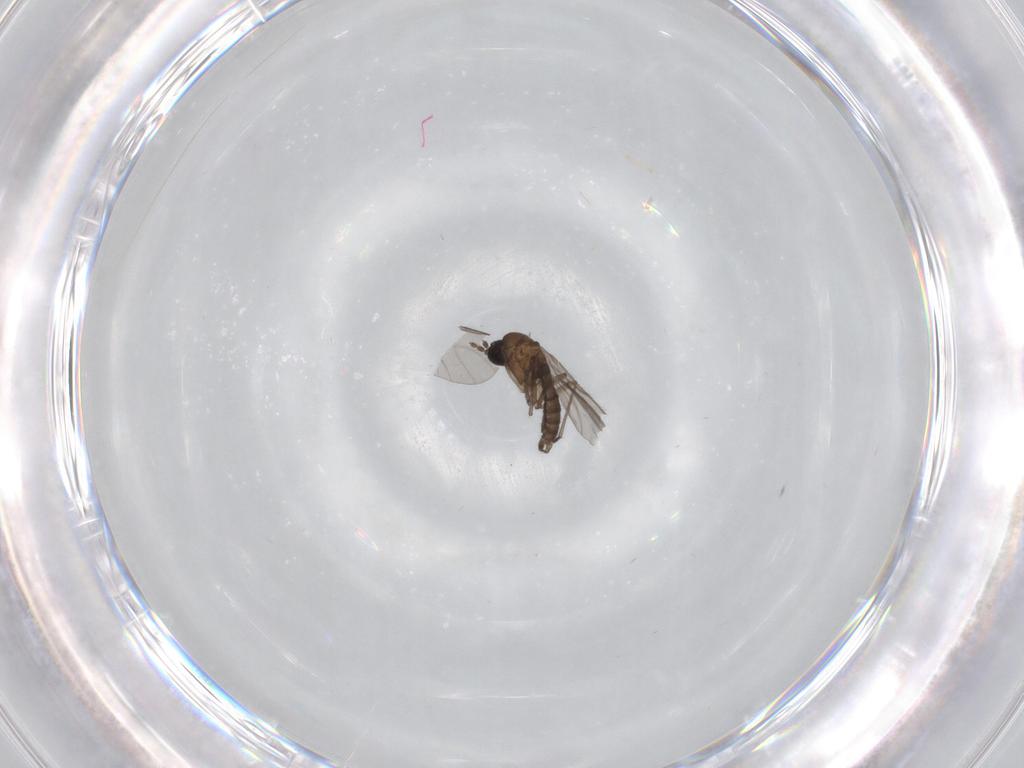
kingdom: Animalia
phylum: Arthropoda
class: Insecta
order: Diptera
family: Sciaridae
